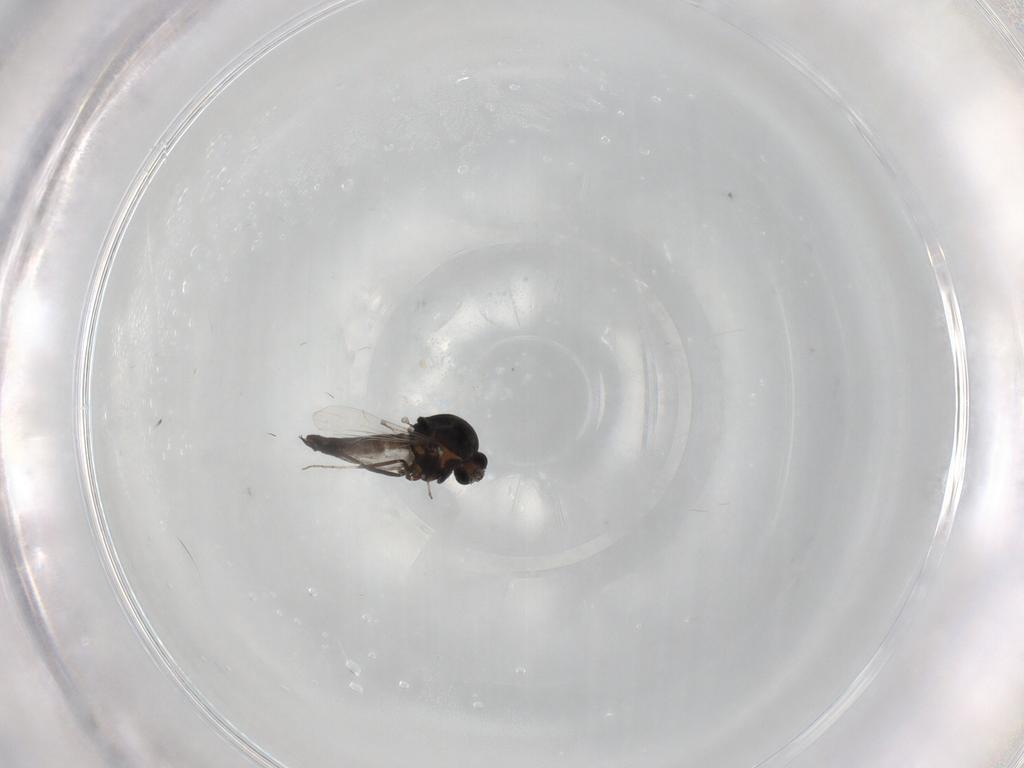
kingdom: Animalia
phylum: Arthropoda
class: Insecta
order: Diptera
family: Ceratopogonidae
